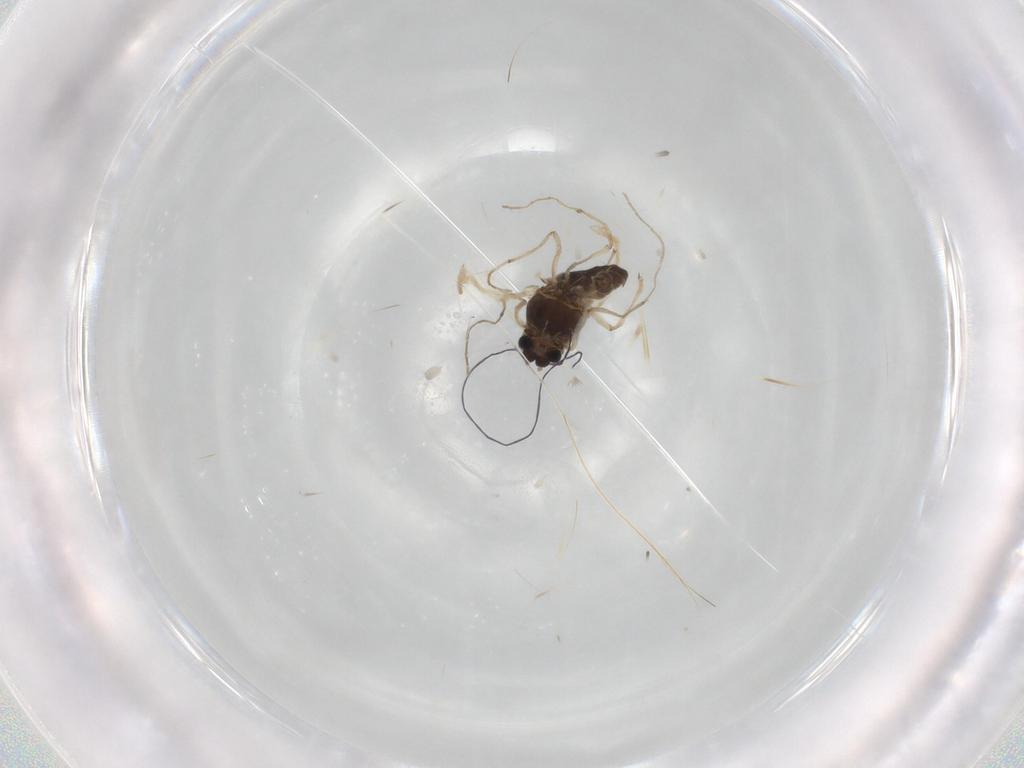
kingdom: Animalia
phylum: Arthropoda
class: Insecta
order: Diptera
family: Chironomidae
